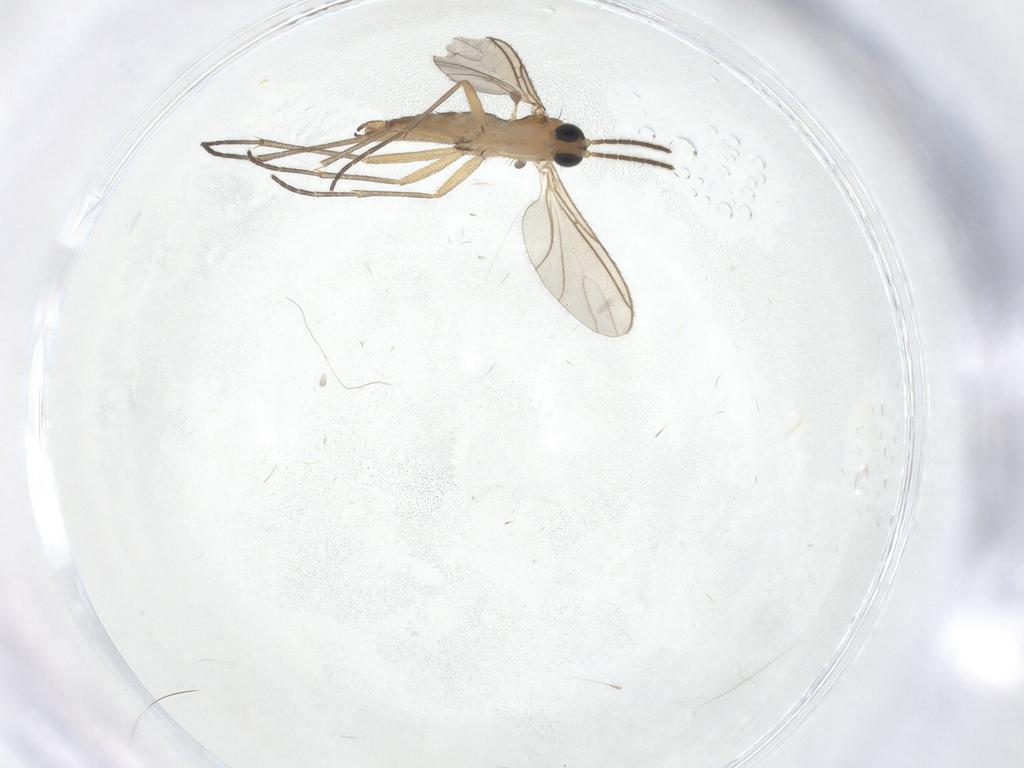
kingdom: Animalia
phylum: Arthropoda
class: Insecta
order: Diptera
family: Sciaridae
